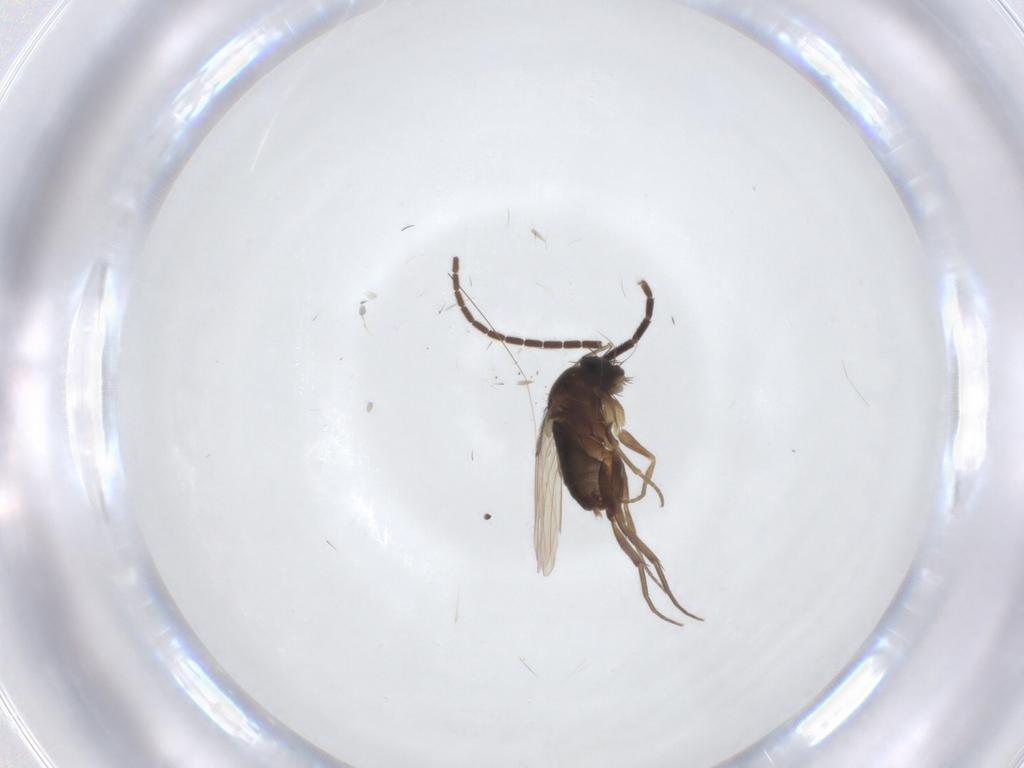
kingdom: Animalia
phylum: Arthropoda
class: Insecta
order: Diptera
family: Phoridae
